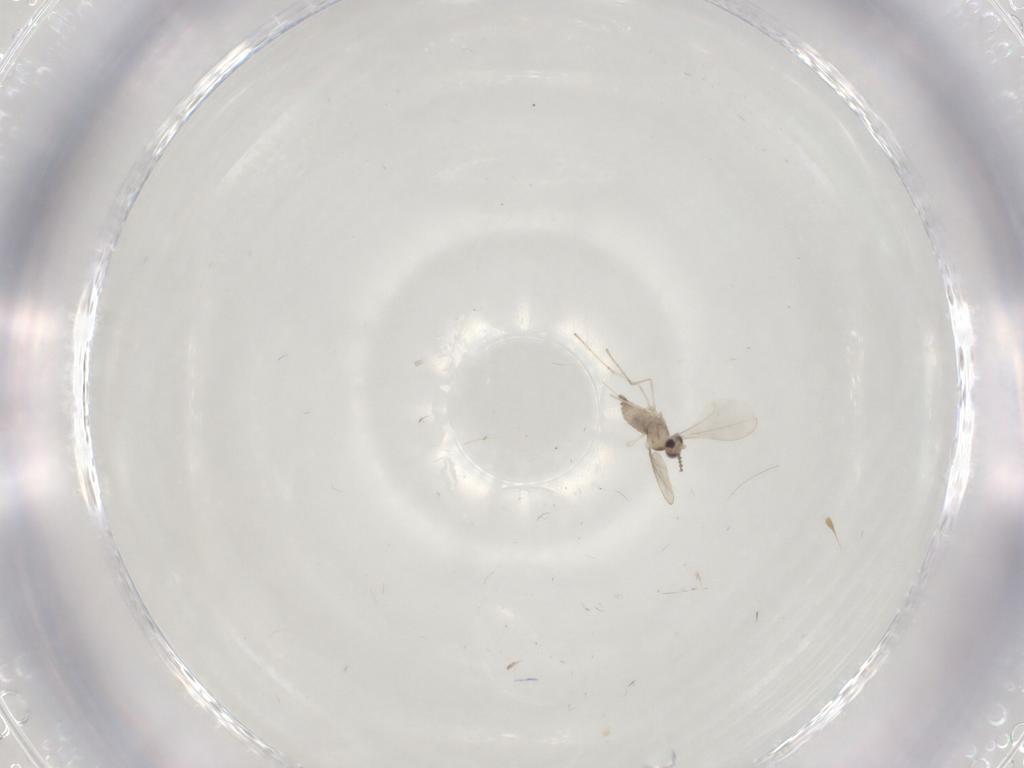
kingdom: Animalia
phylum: Arthropoda
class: Insecta
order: Diptera
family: Cecidomyiidae
